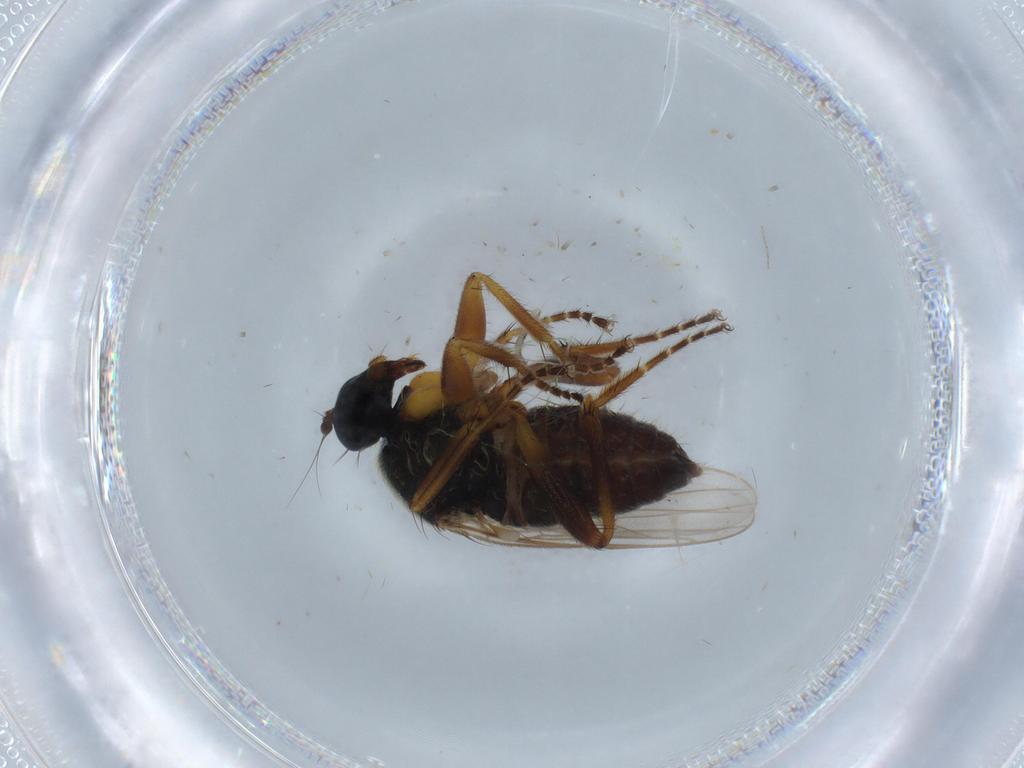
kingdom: Animalia
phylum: Arthropoda
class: Insecta
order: Diptera
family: Hybotidae
